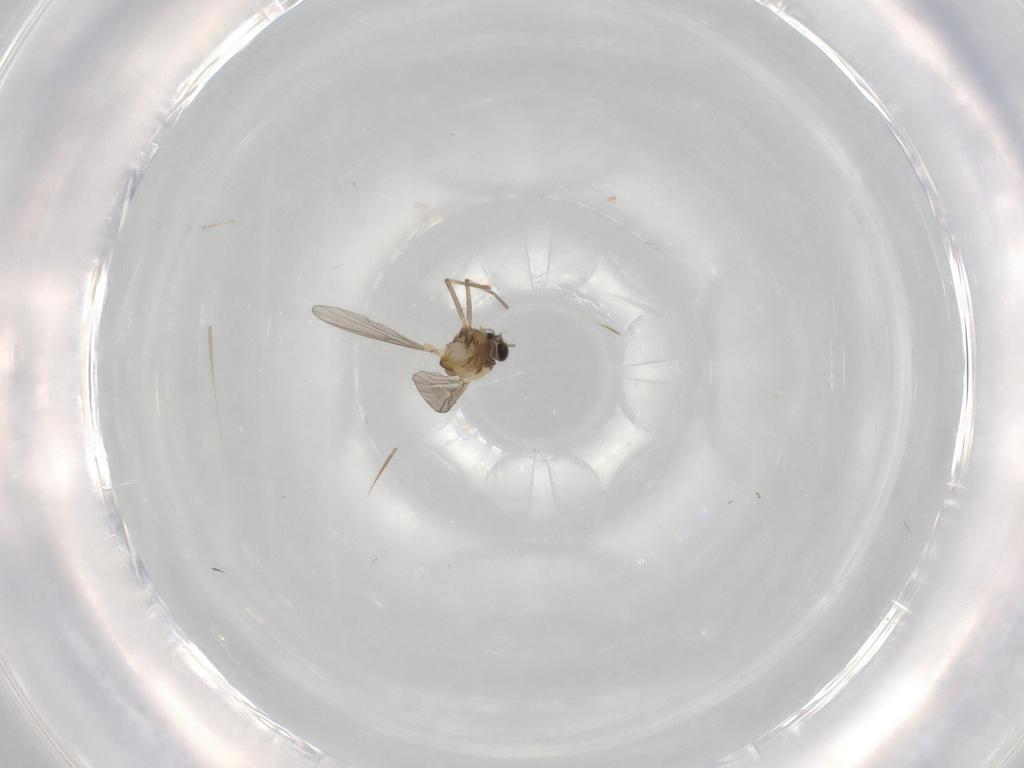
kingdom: Animalia
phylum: Arthropoda
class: Insecta
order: Diptera
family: Chironomidae
